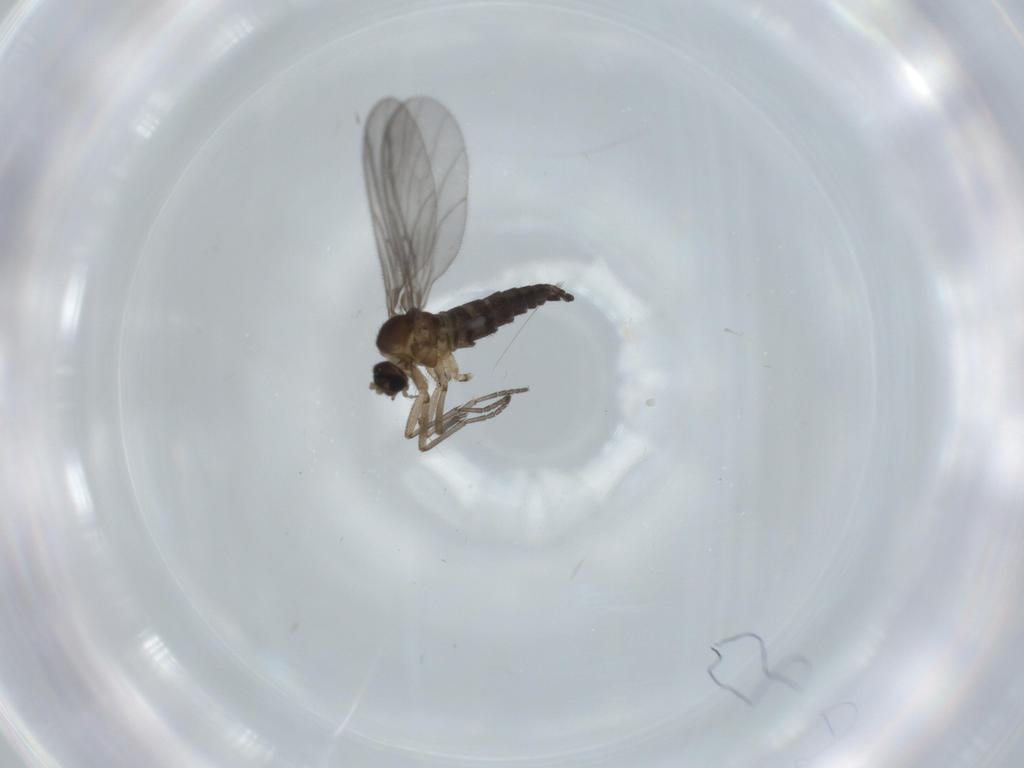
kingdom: Animalia
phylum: Arthropoda
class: Insecta
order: Diptera
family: Sciaridae
